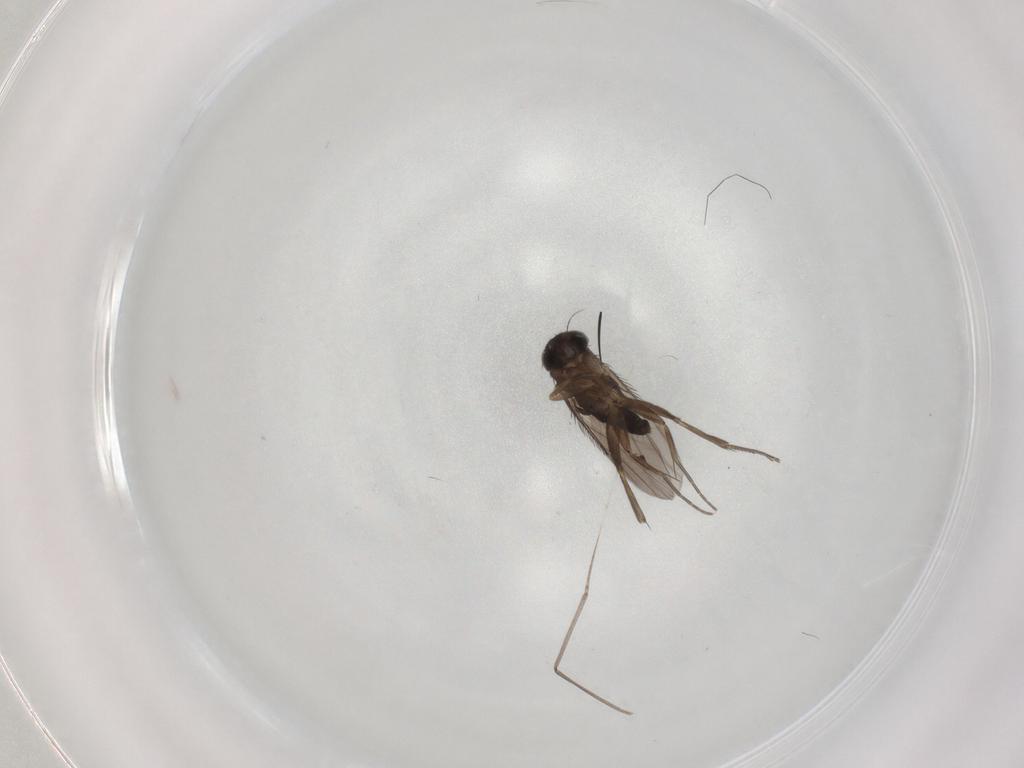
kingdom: Animalia
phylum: Arthropoda
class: Insecta
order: Diptera
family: Phoridae
